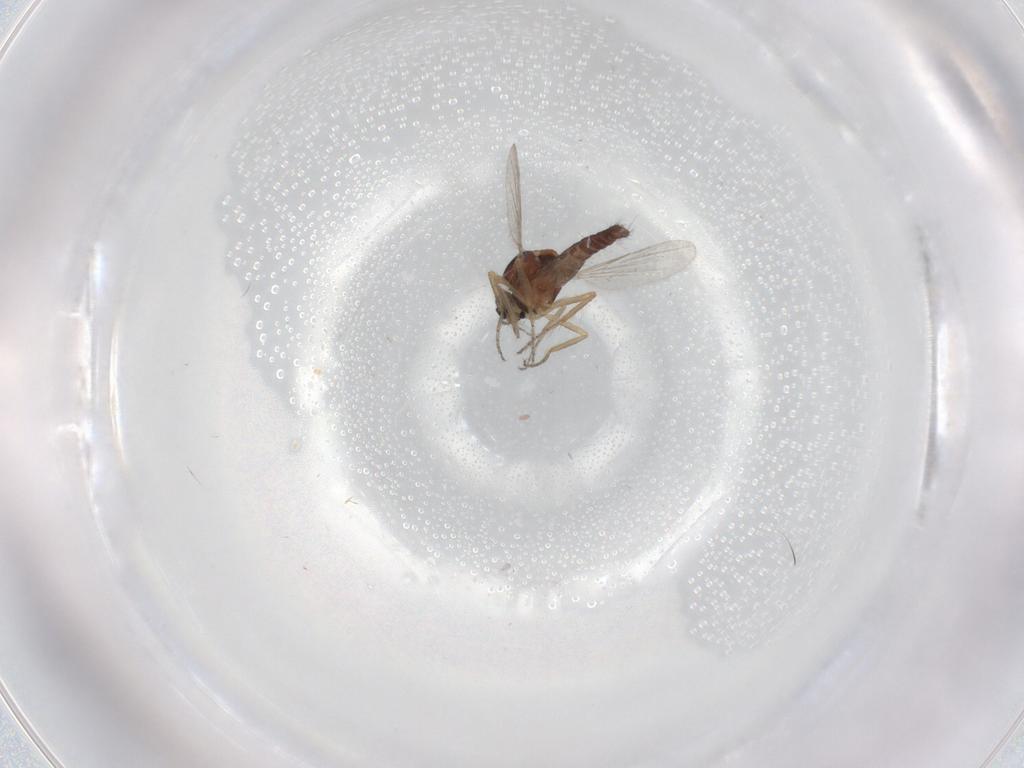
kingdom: Animalia
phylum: Arthropoda
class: Insecta
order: Diptera
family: Ceratopogonidae
